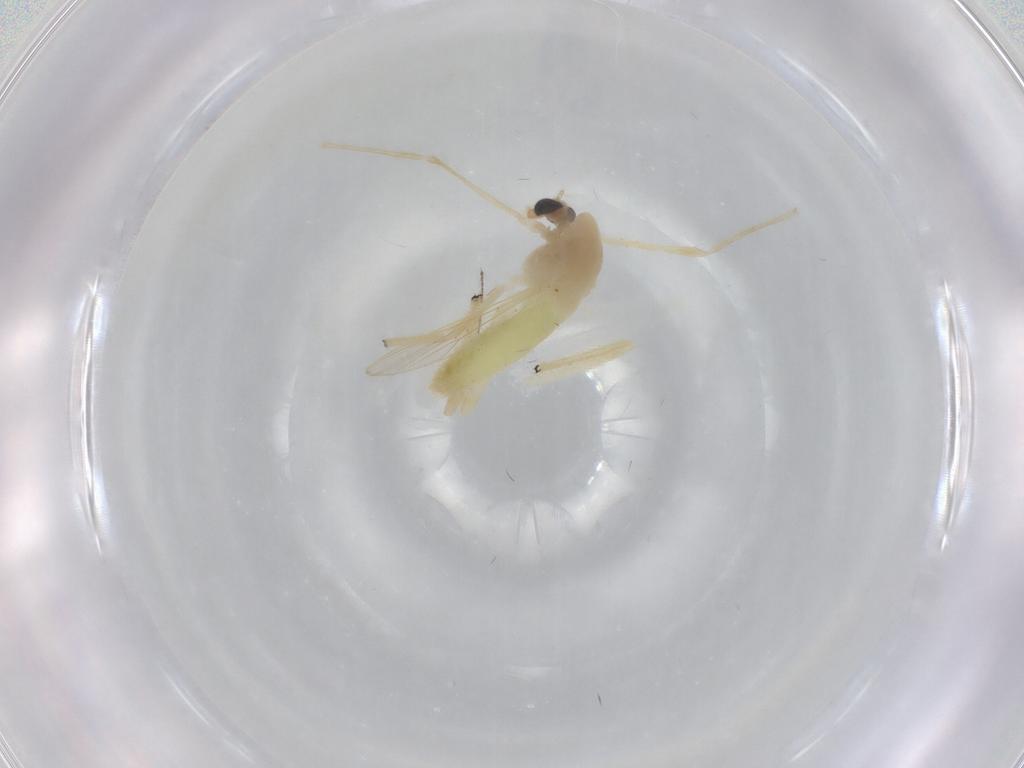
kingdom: Animalia
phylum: Arthropoda
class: Insecta
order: Diptera
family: Chironomidae
